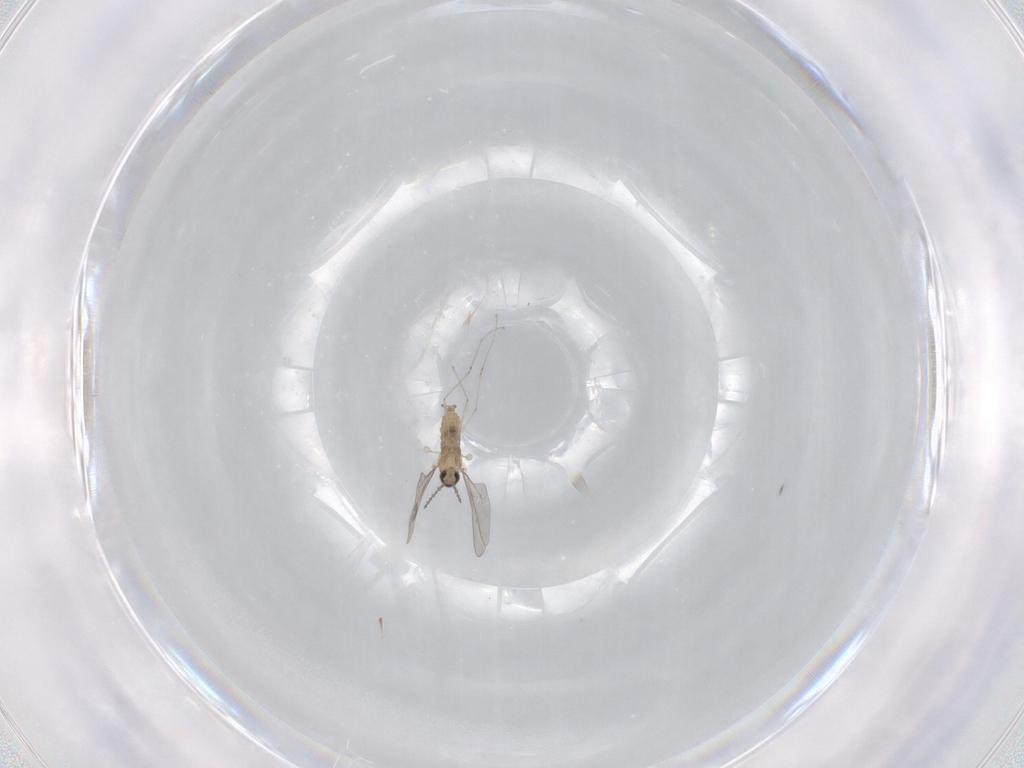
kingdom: Animalia
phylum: Arthropoda
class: Insecta
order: Diptera
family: Cecidomyiidae
